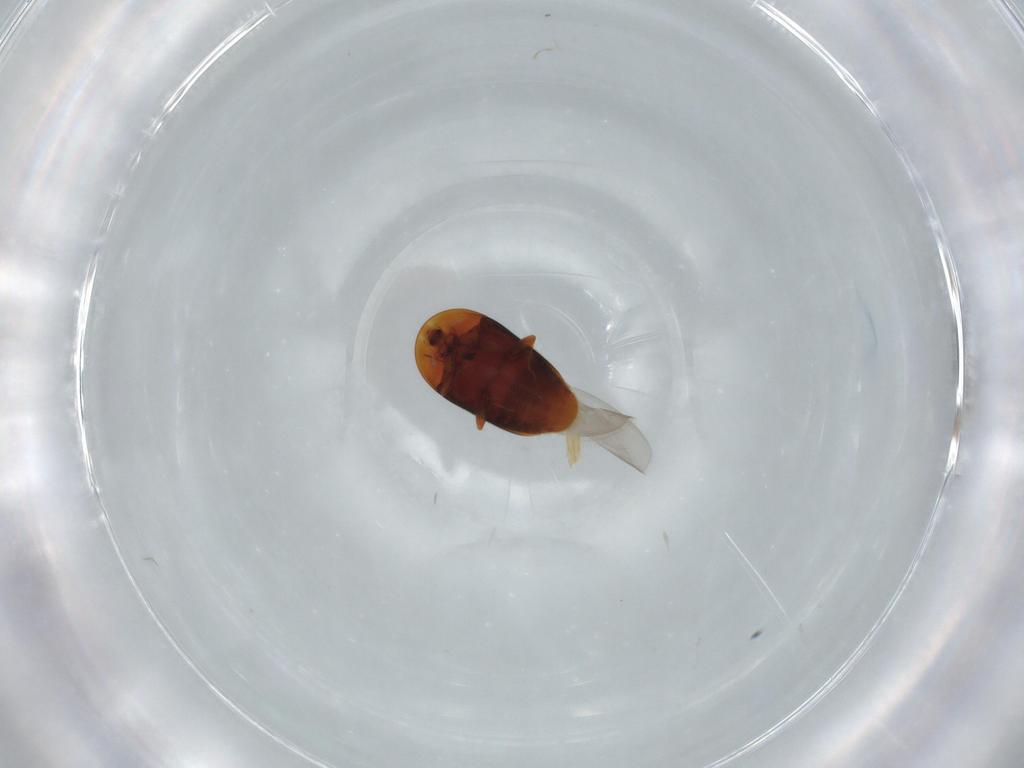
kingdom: Animalia
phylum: Arthropoda
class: Insecta
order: Coleoptera
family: Corylophidae
